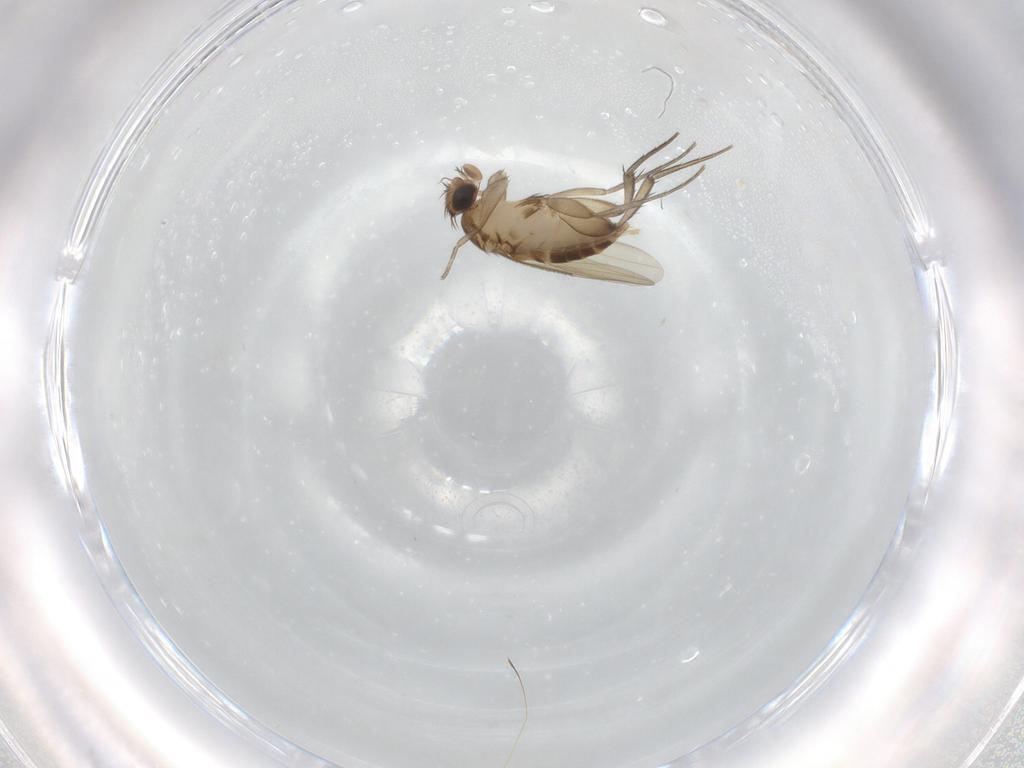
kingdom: Animalia
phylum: Arthropoda
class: Insecta
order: Diptera
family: Phoridae
